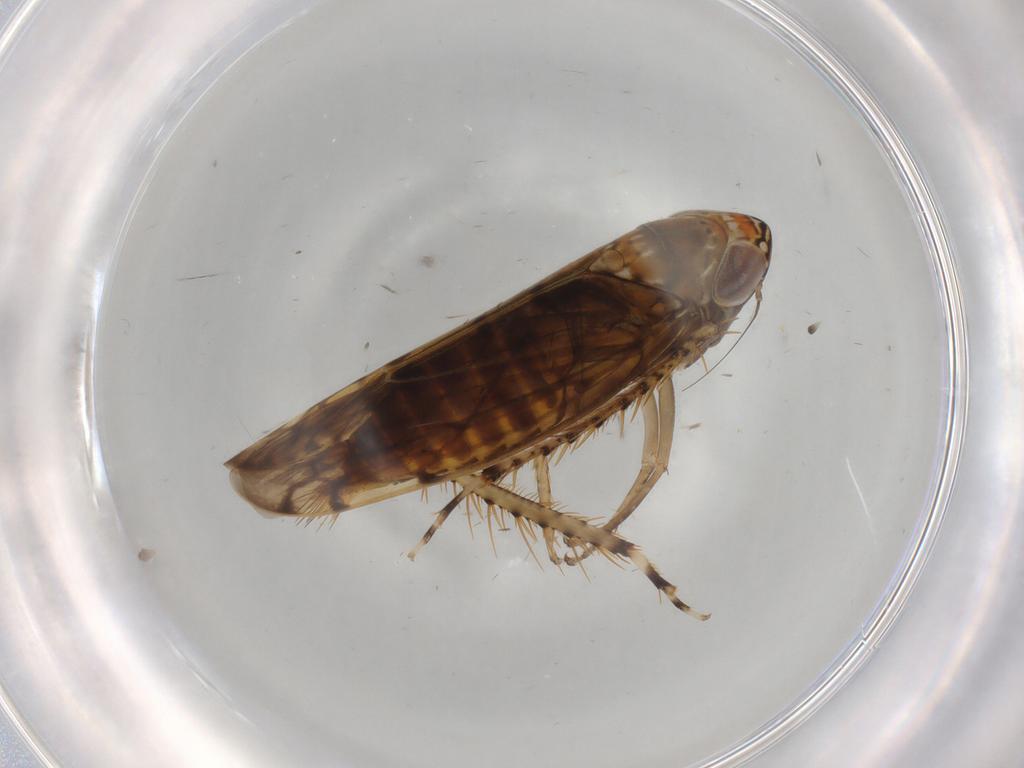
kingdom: Animalia
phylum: Arthropoda
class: Insecta
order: Hemiptera
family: Cicadellidae
